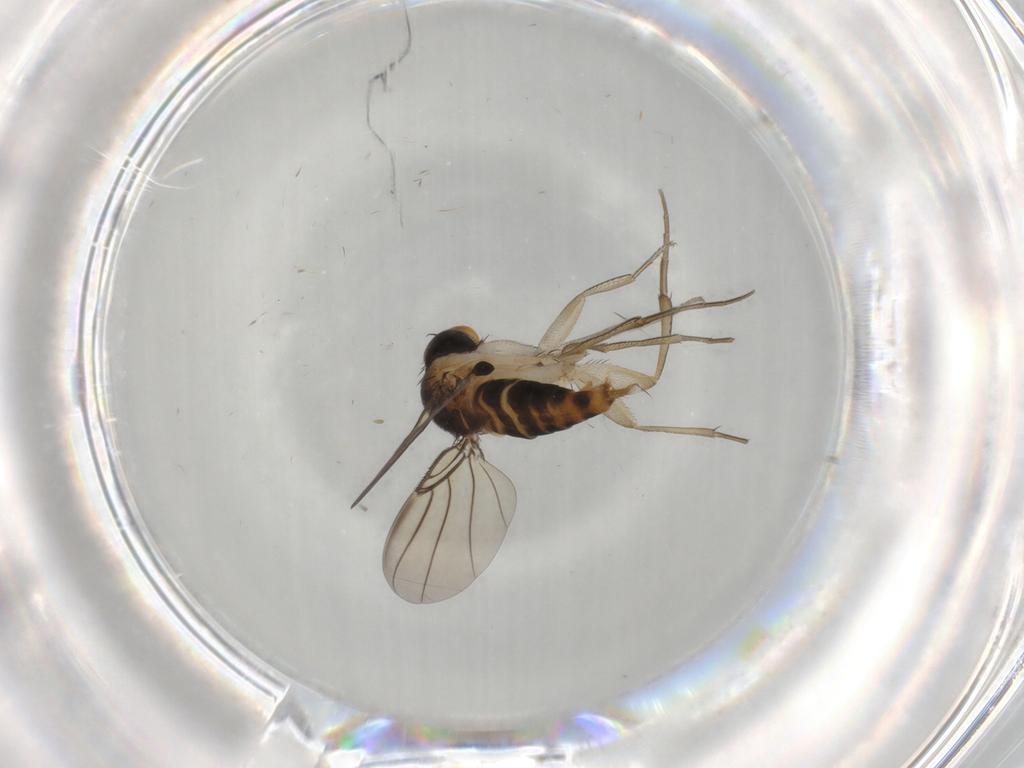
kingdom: Animalia
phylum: Arthropoda
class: Insecta
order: Diptera
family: Phoridae
